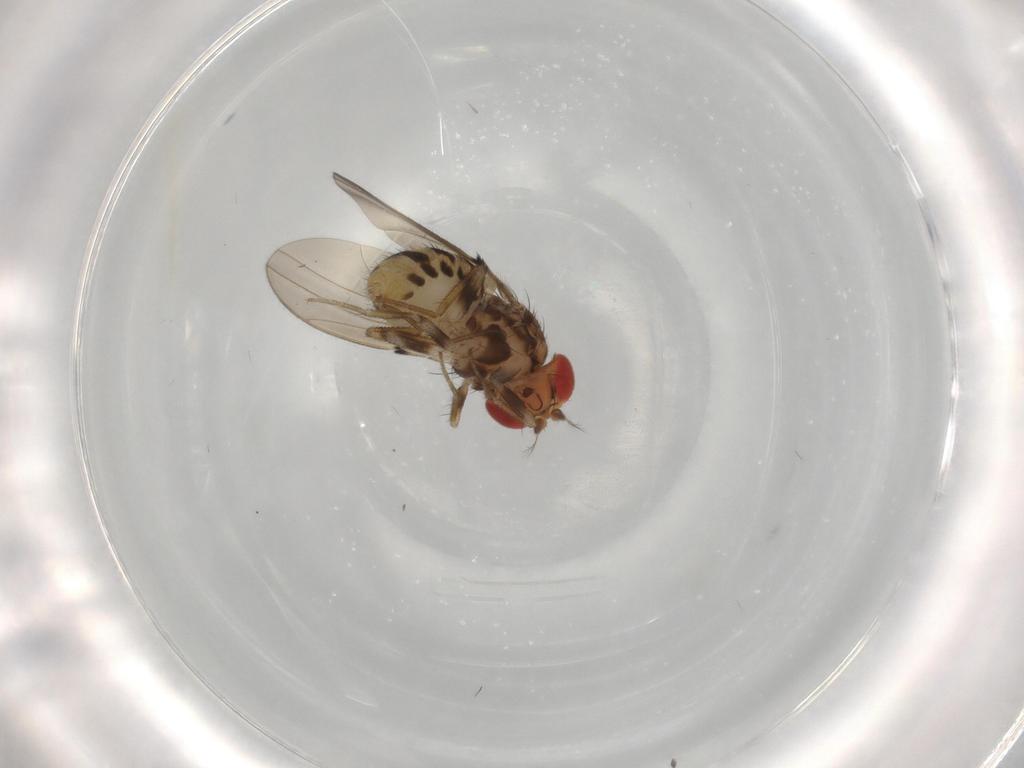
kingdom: Animalia
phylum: Arthropoda
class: Insecta
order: Diptera
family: Drosophilidae
